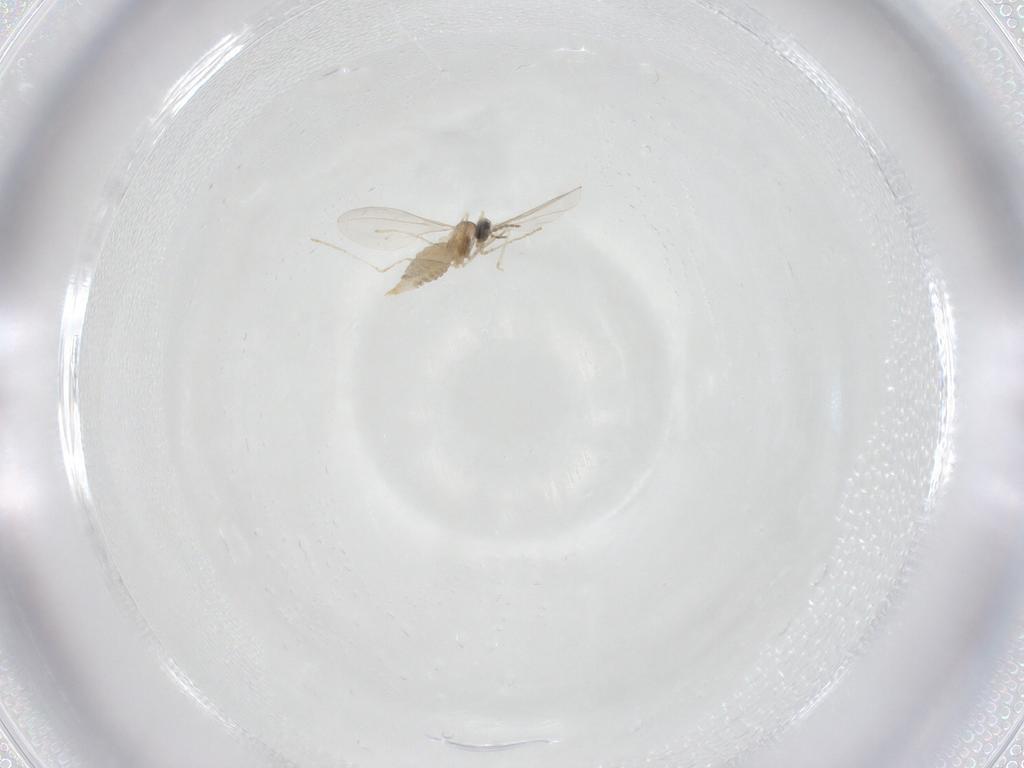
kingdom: Animalia
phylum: Arthropoda
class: Insecta
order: Diptera
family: Cecidomyiidae
